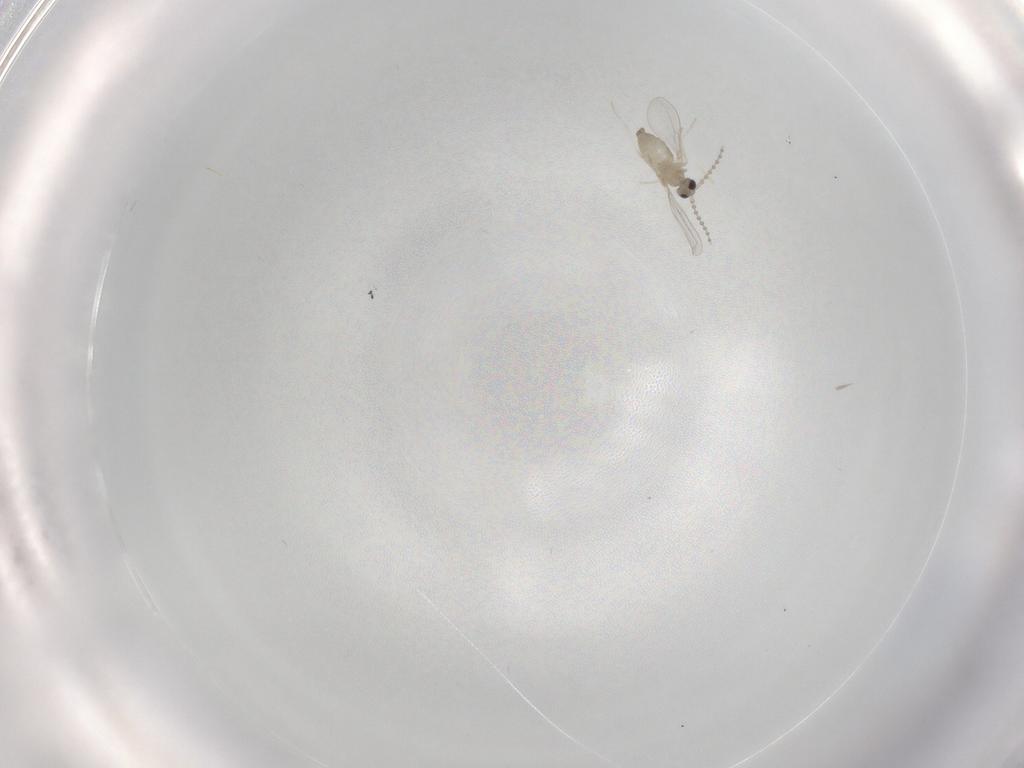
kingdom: Animalia
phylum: Arthropoda
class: Insecta
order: Diptera
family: Cecidomyiidae
